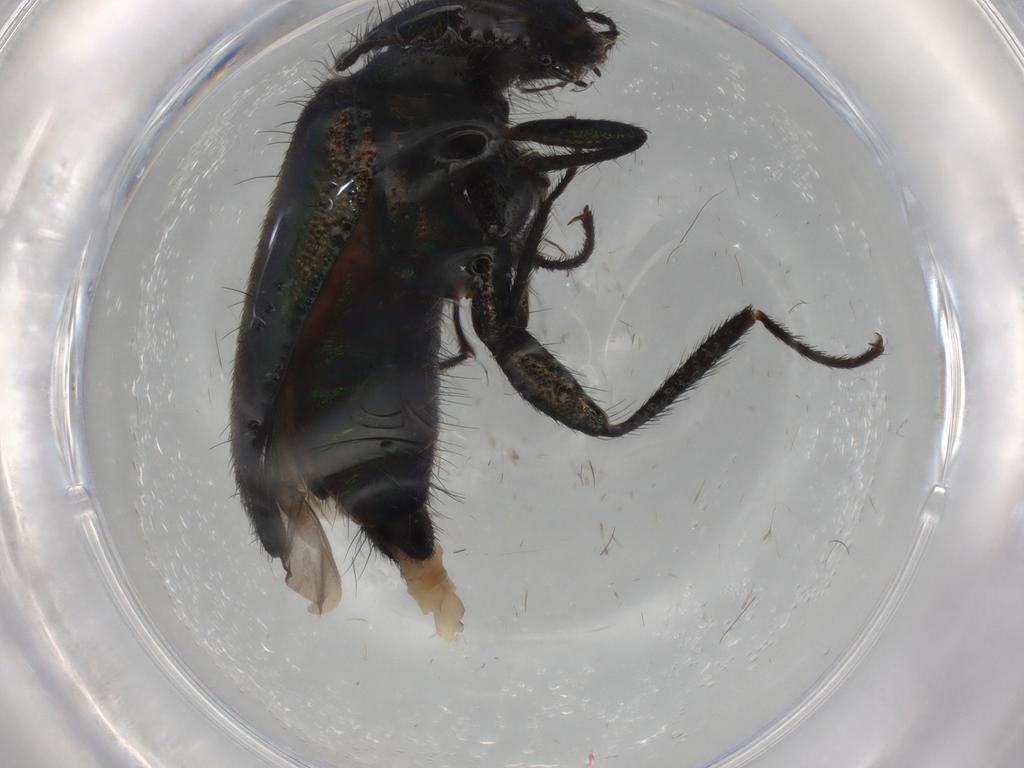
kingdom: Animalia
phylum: Arthropoda
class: Insecta
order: Coleoptera
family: Melyridae
